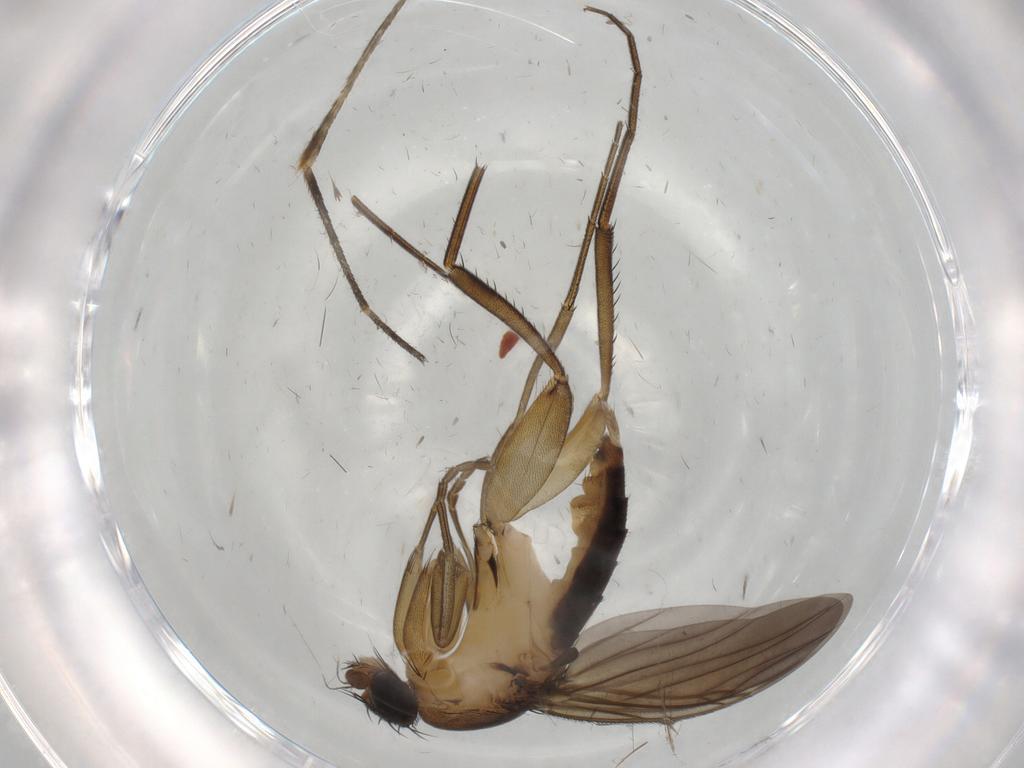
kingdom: Animalia
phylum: Arthropoda
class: Insecta
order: Diptera
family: Culicidae
